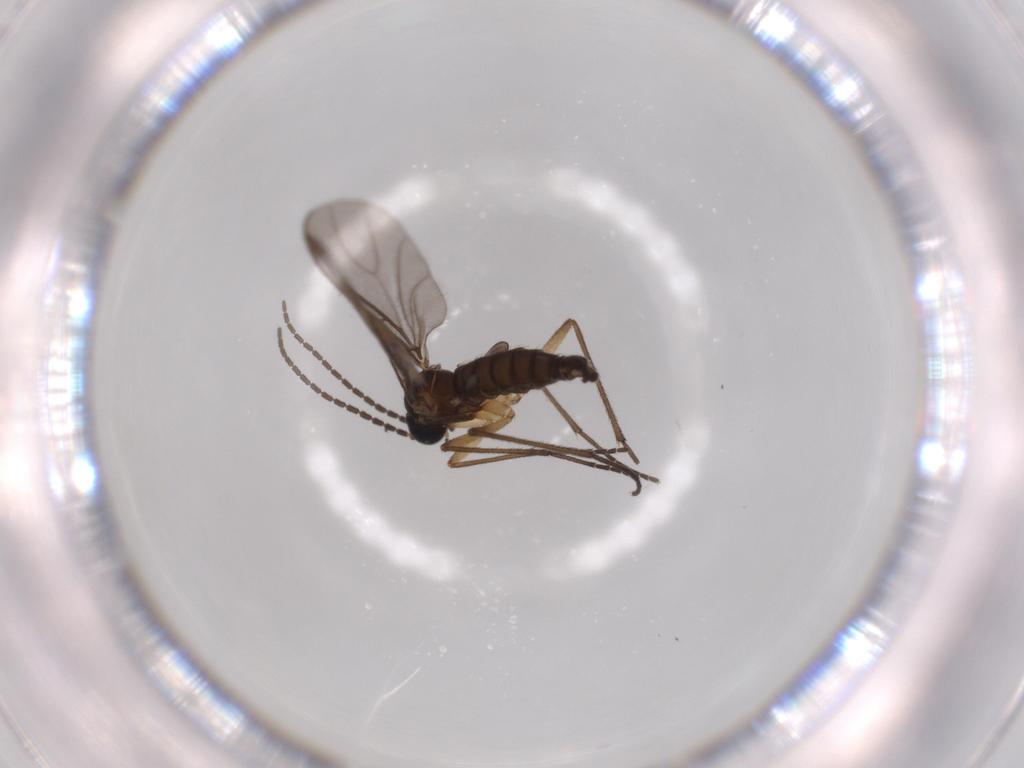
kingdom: Animalia
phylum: Arthropoda
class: Insecta
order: Diptera
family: Sciaridae
